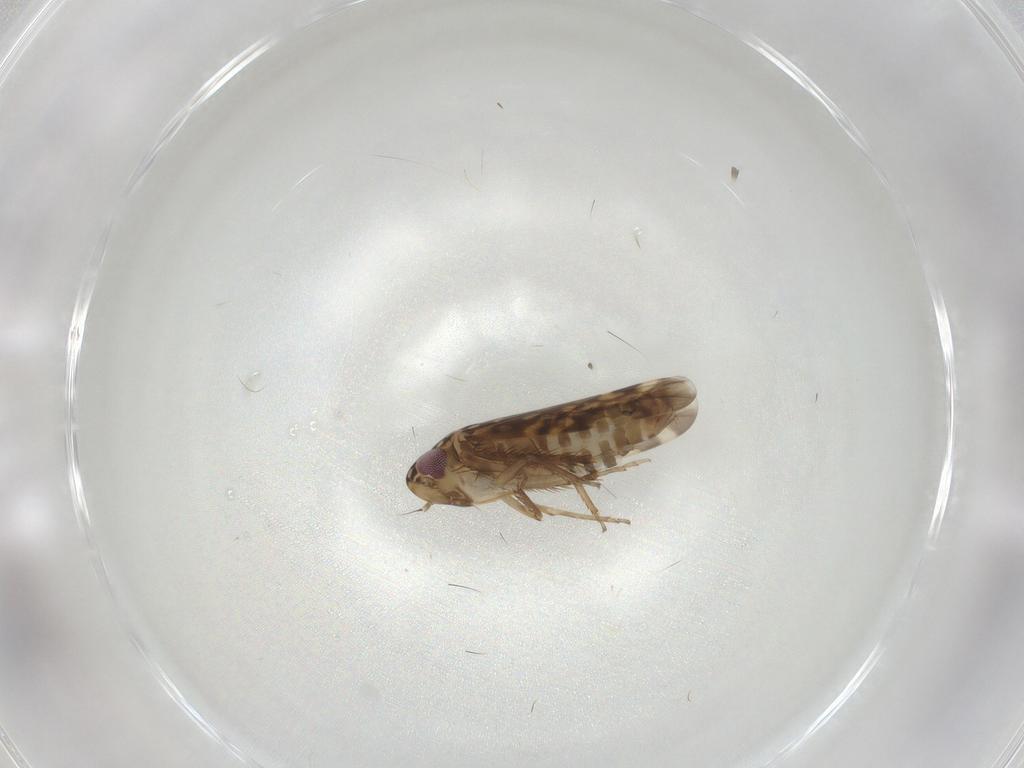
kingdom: Animalia
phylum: Arthropoda
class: Insecta
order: Hemiptera
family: Cicadellidae
